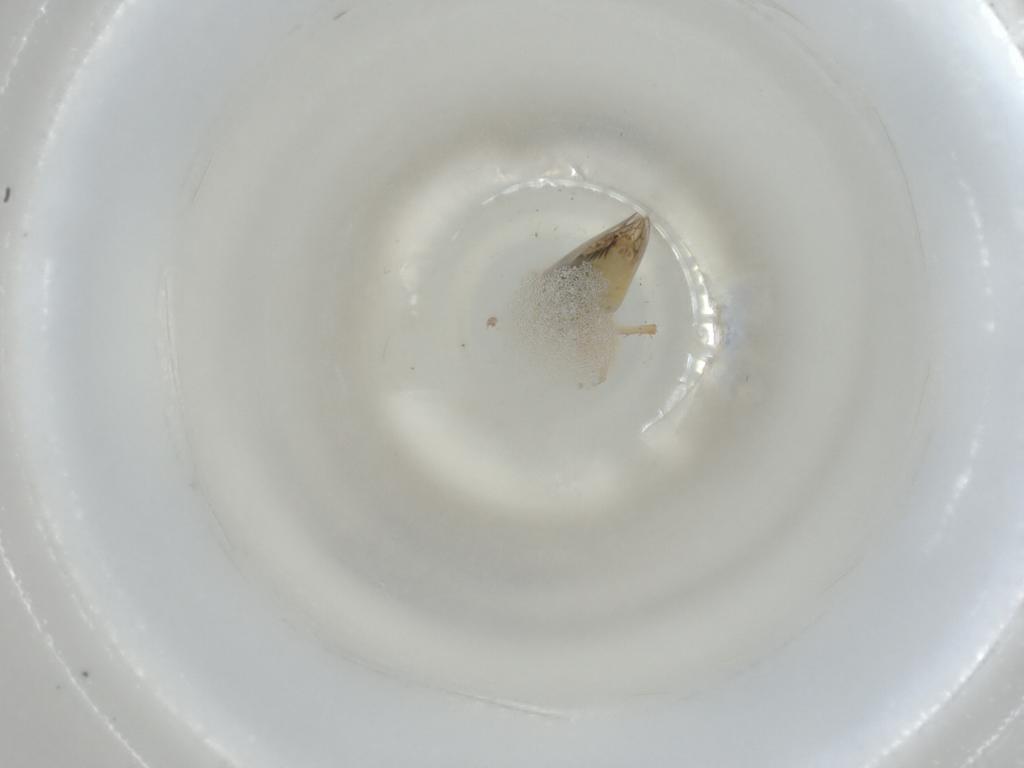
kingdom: Animalia
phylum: Arthropoda
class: Insecta
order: Hemiptera
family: Cicadellidae
